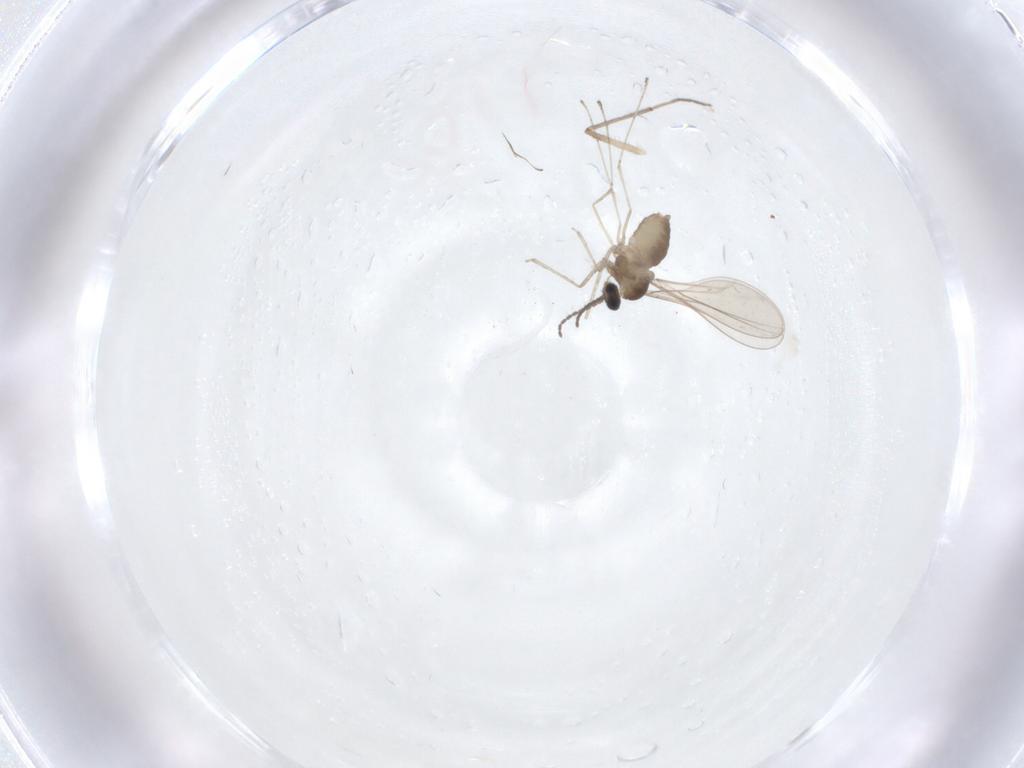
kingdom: Animalia
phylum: Arthropoda
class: Insecta
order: Diptera
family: Cecidomyiidae
